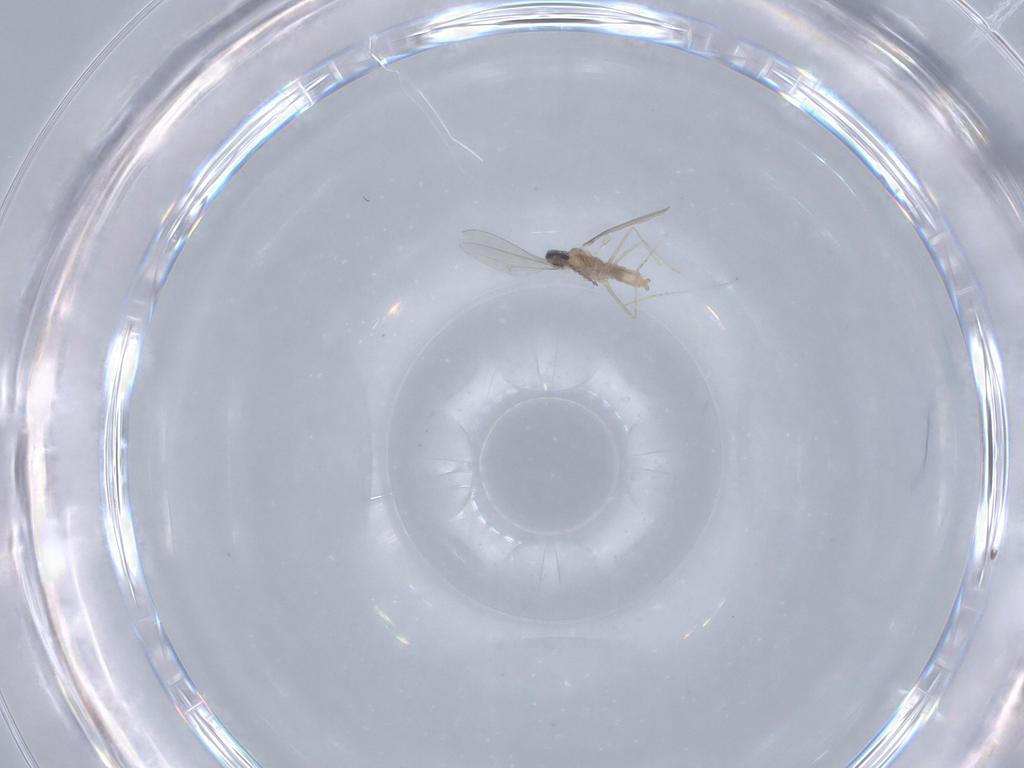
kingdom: Animalia
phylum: Arthropoda
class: Insecta
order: Diptera
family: Cecidomyiidae
